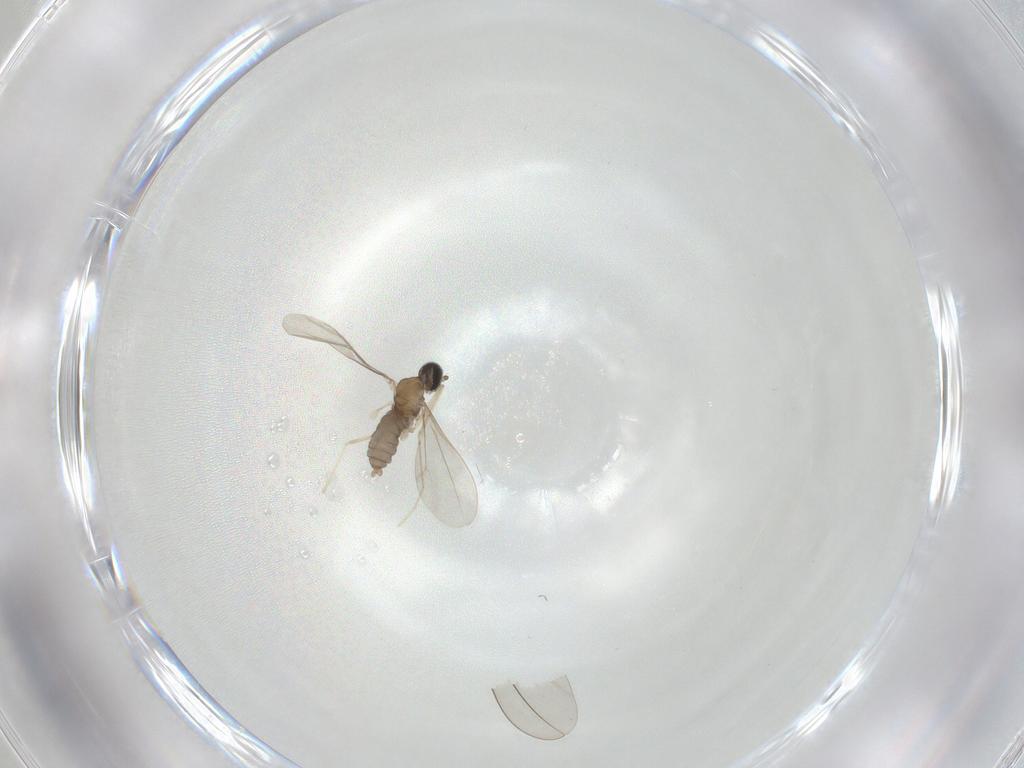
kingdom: Animalia
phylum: Arthropoda
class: Insecta
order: Diptera
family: Cecidomyiidae
